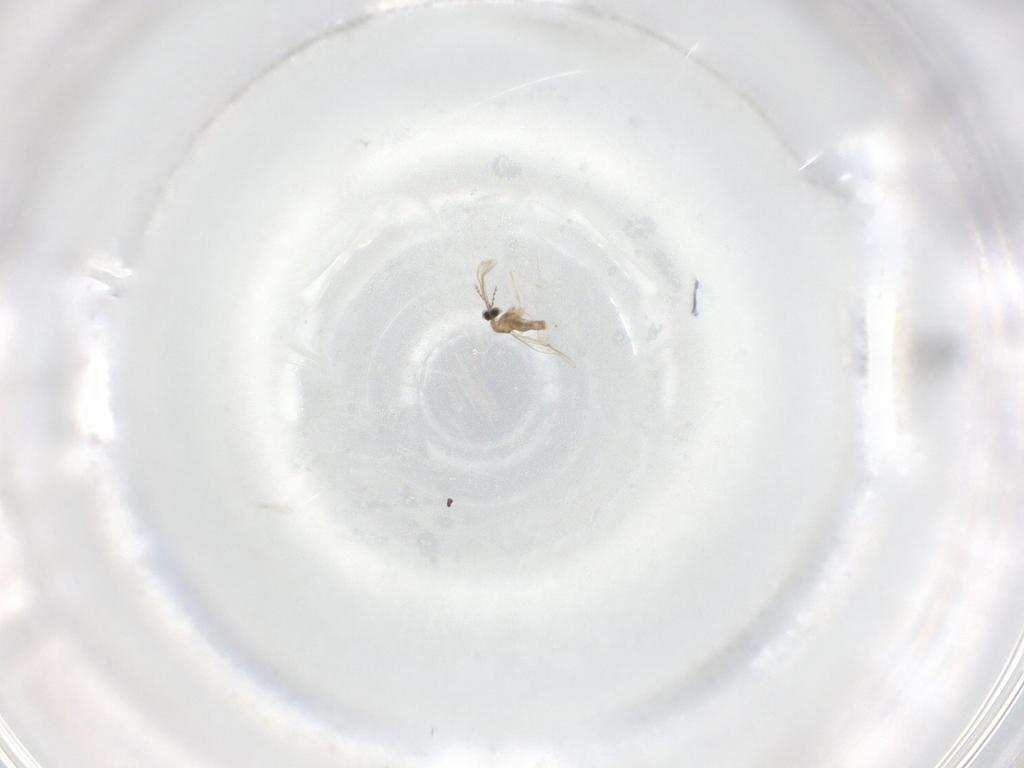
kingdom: Animalia
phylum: Arthropoda
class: Insecta
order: Diptera
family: Cecidomyiidae
